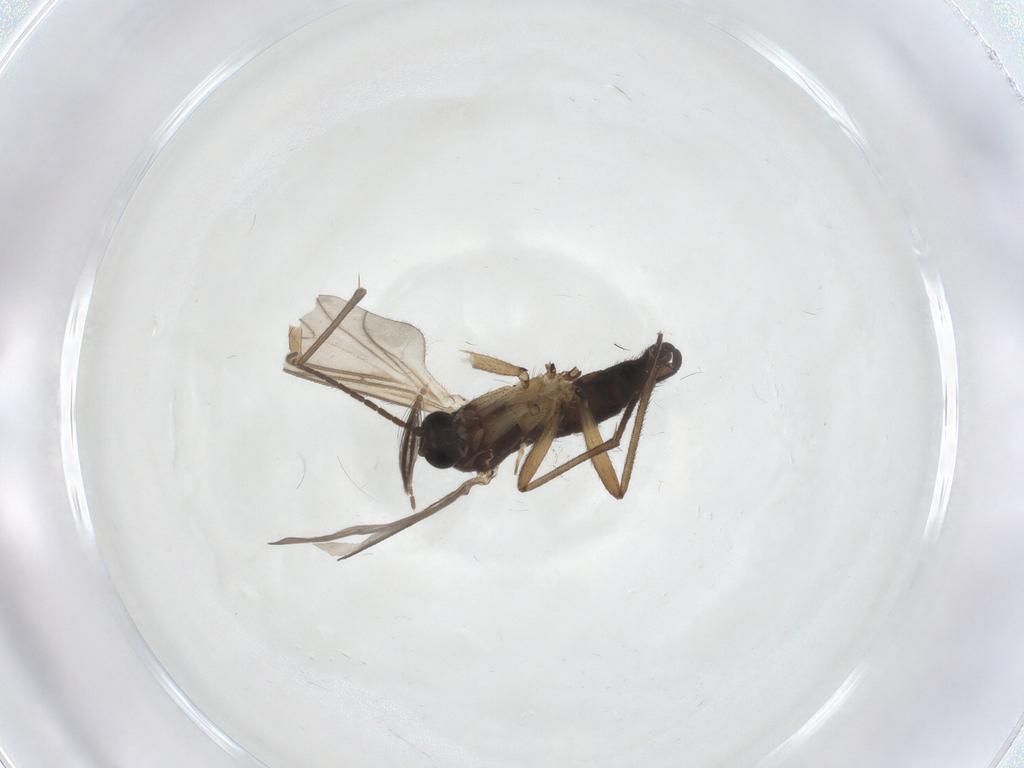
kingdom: Animalia
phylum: Arthropoda
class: Insecta
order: Diptera
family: Sciaridae
